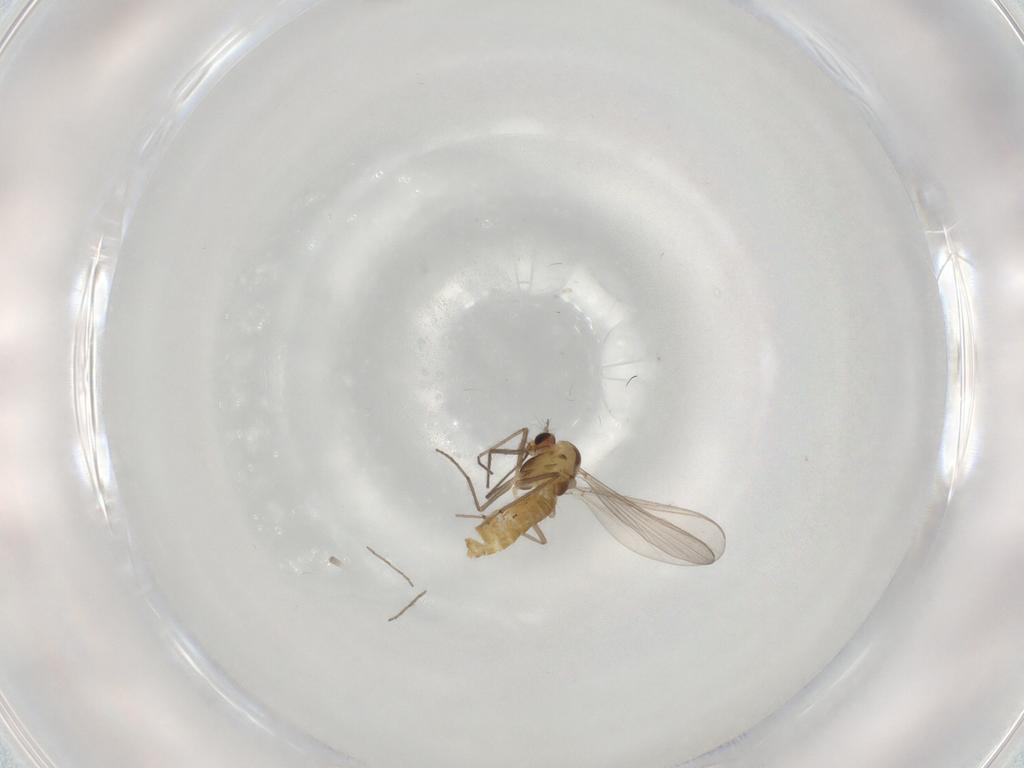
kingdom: Animalia
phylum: Arthropoda
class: Insecta
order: Diptera
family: Chironomidae
